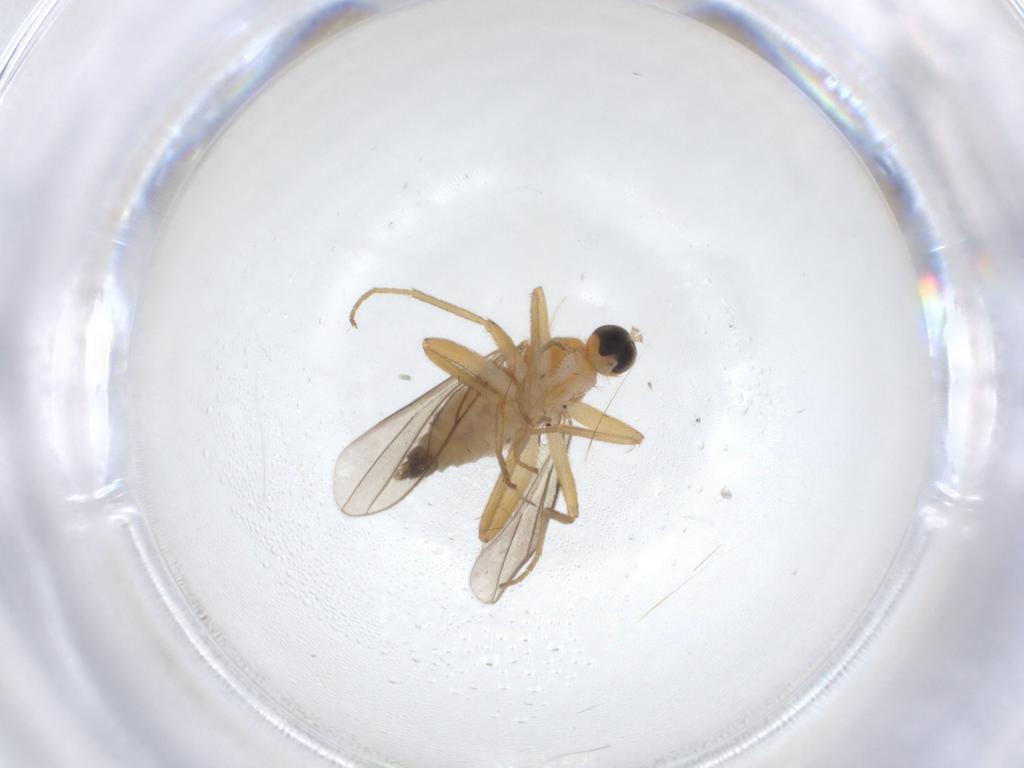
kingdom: Animalia
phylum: Arthropoda
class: Insecta
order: Diptera
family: Hybotidae
